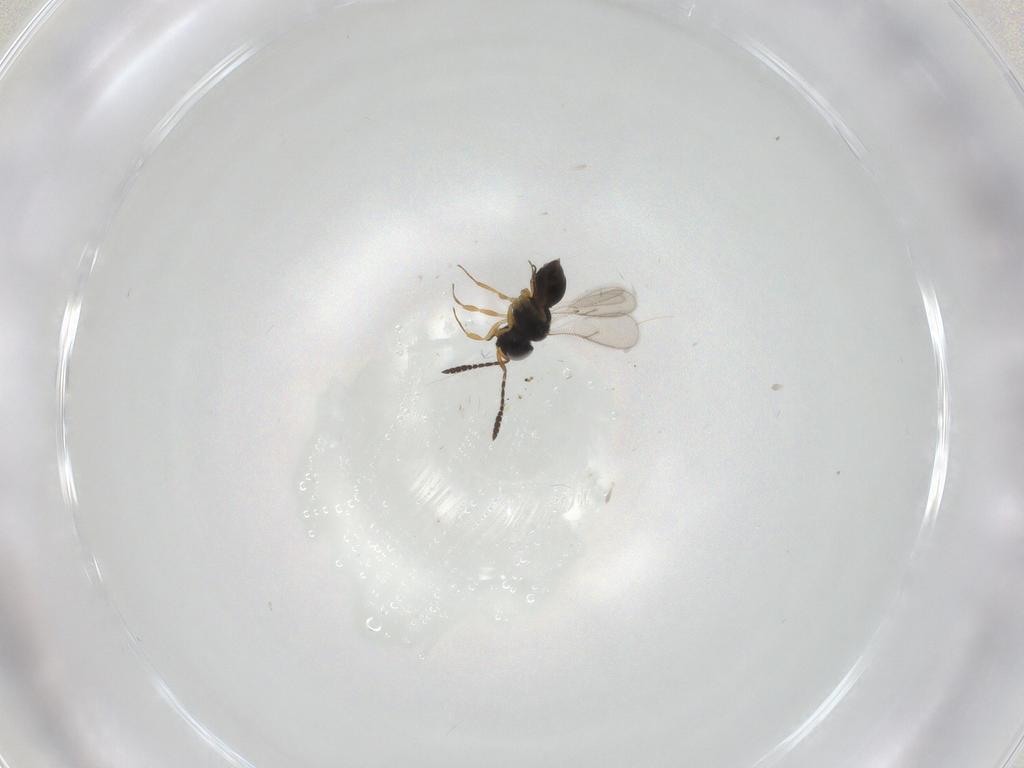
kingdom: Animalia
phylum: Arthropoda
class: Insecta
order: Hymenoptera
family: Scelionidae
